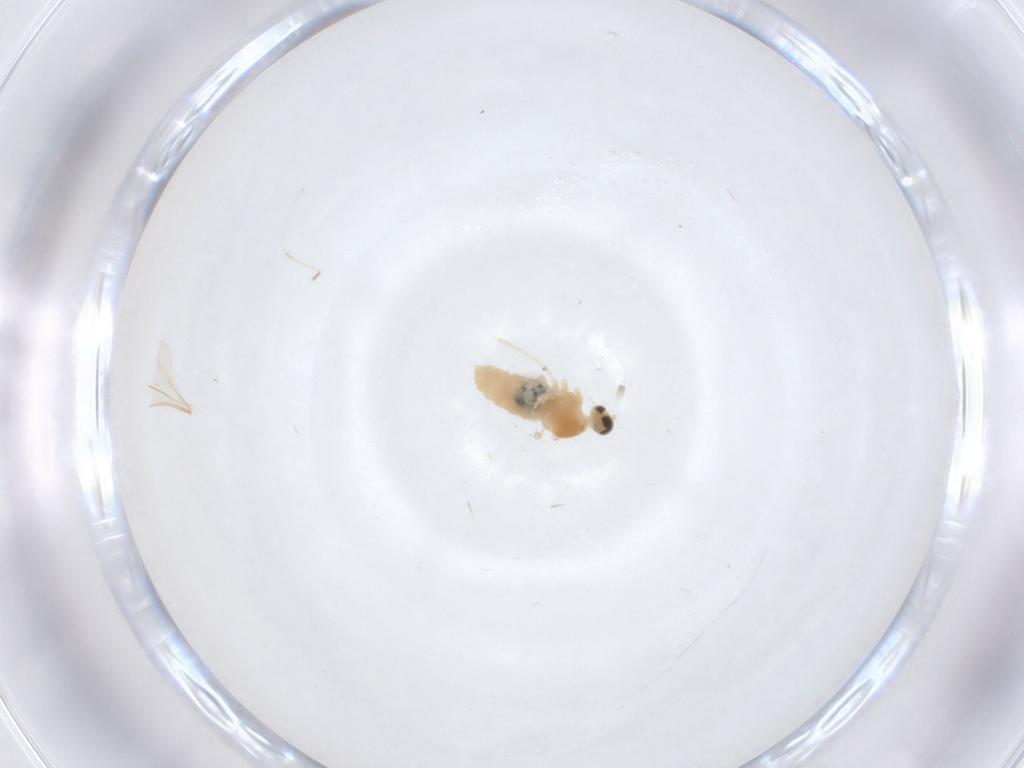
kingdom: Animalia
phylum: Arthropoda
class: Insecta
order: Diptera
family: Cecidomyiidae
